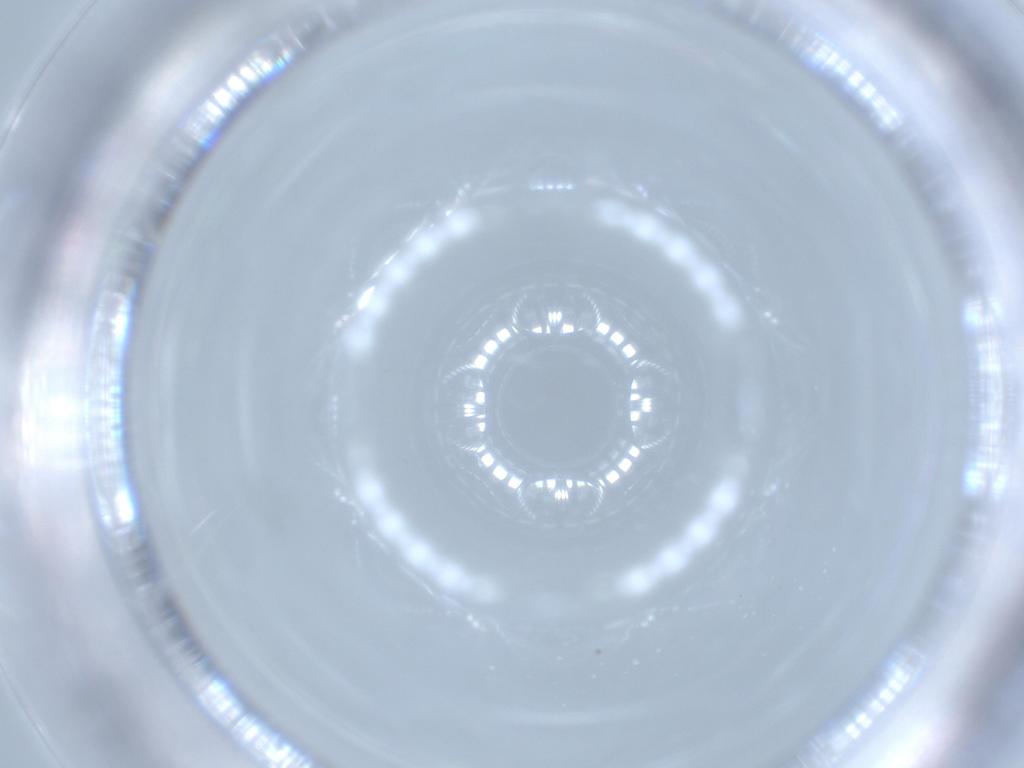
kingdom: Animalia
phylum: Arthropoda
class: Insecta
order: Psocodea
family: Lepidopsocidae
